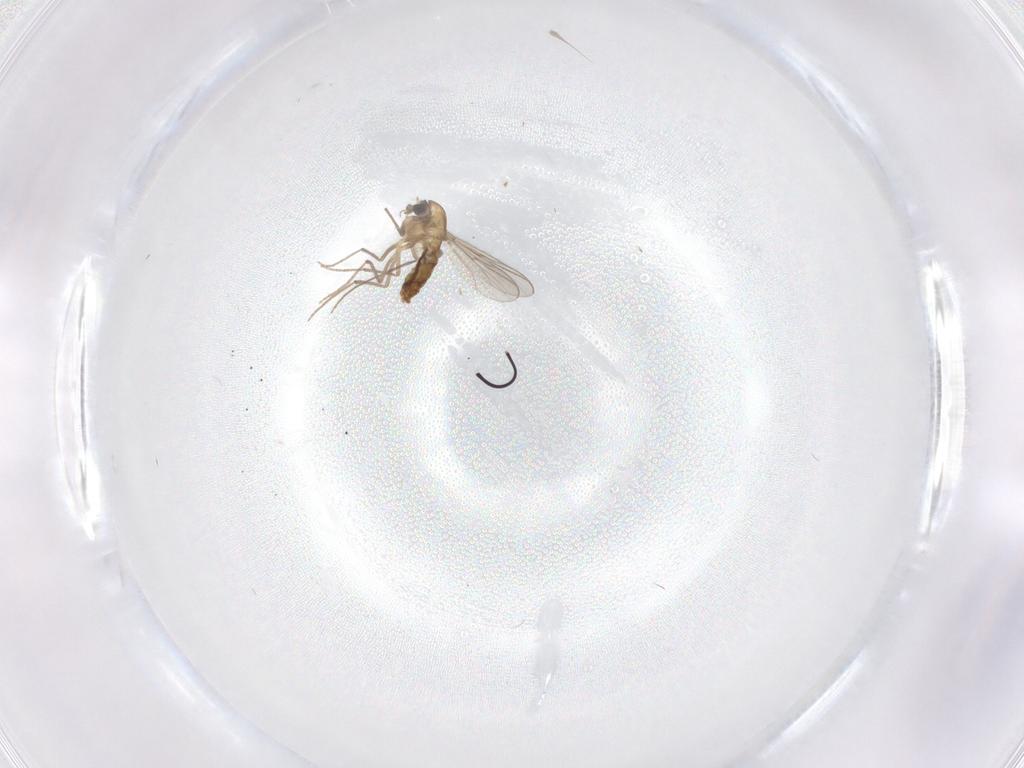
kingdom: Animalia
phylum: Arthropoda
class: Insecta
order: Diptera
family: Chironomidae
